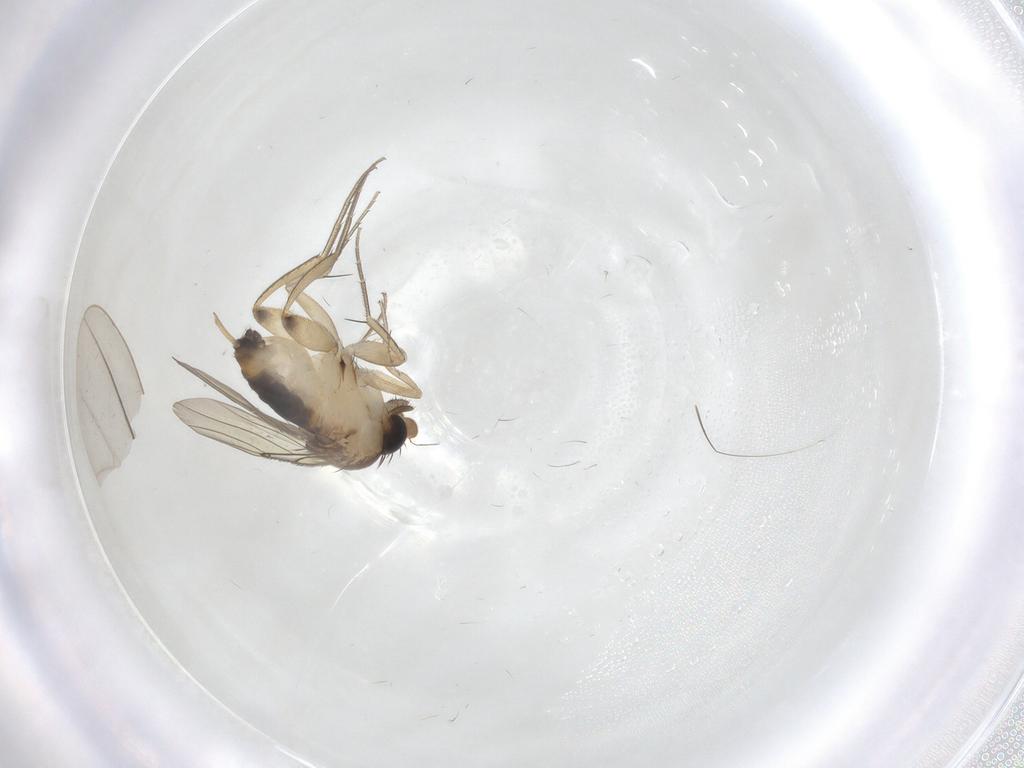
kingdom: Animalia
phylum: Arthropoda
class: Insecta
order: Diptera
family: Phoridae
